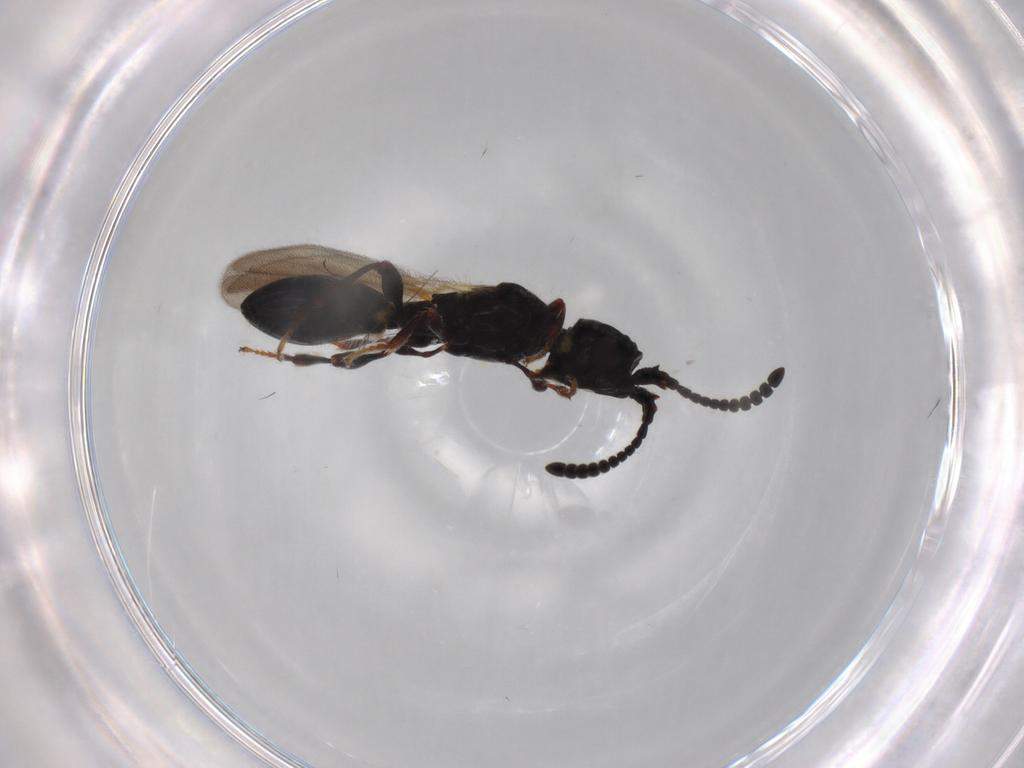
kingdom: Animalia
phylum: Arthropoda
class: Insecta
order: Hymenoptera
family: Diapriidae
